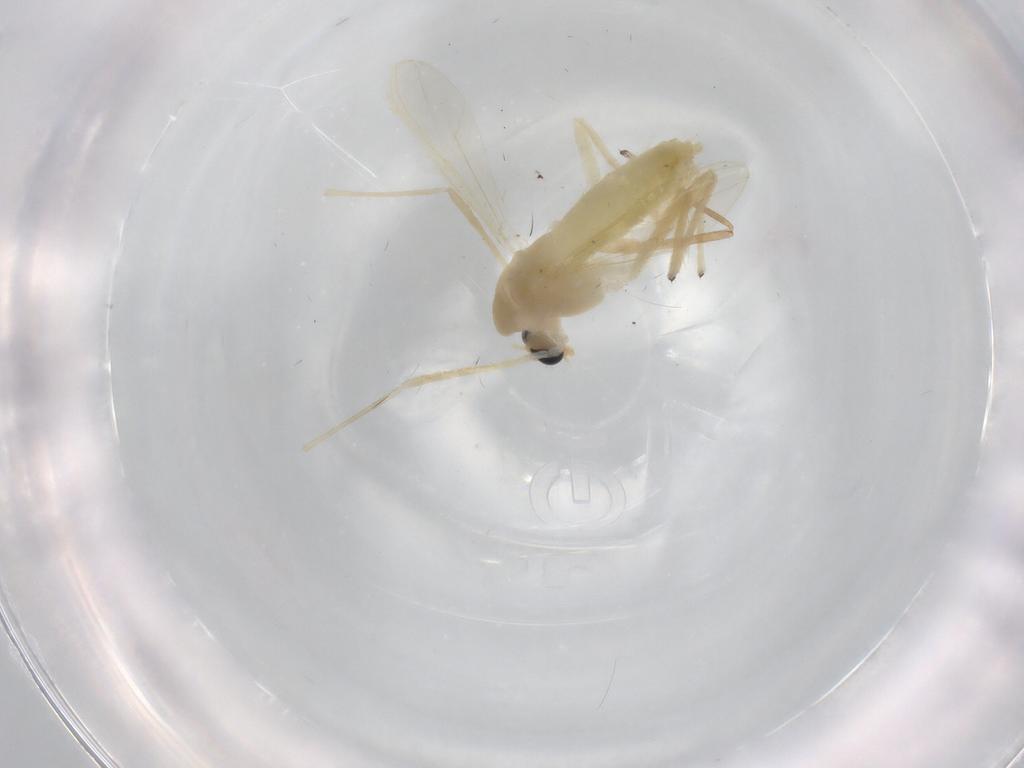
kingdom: Animalia
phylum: Arthropoda
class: Insecta
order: Diptera
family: Chironomidae
